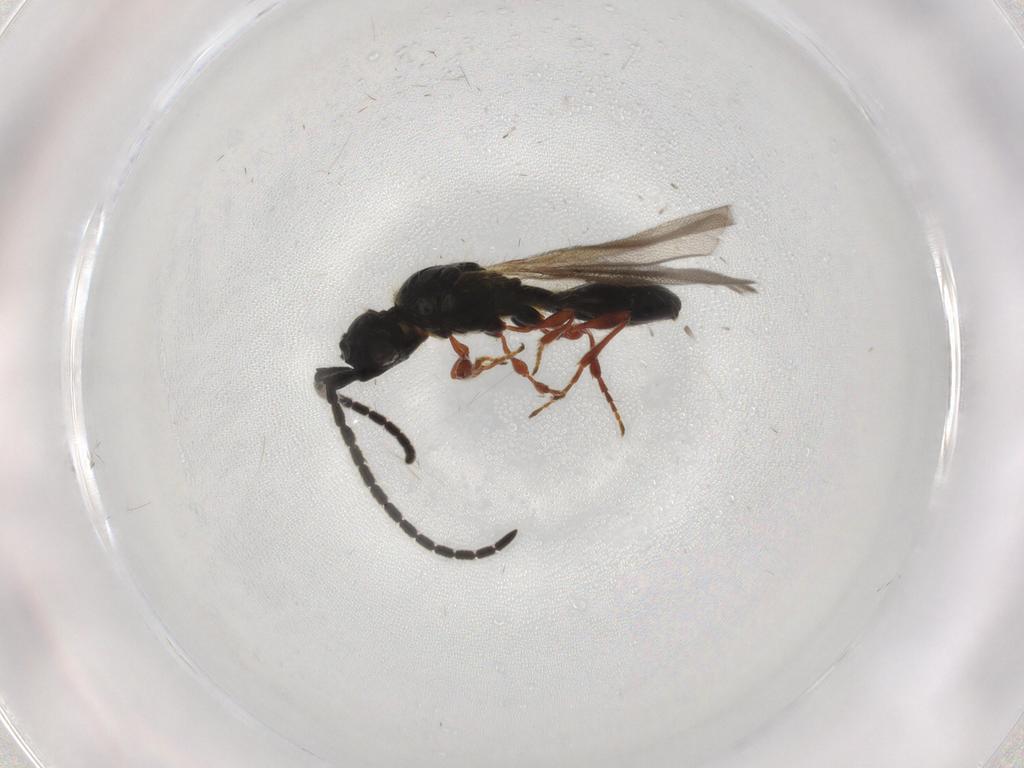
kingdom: Animalia
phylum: Arthropoda
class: Insecta
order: Hymenoptera
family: Diapriidae
